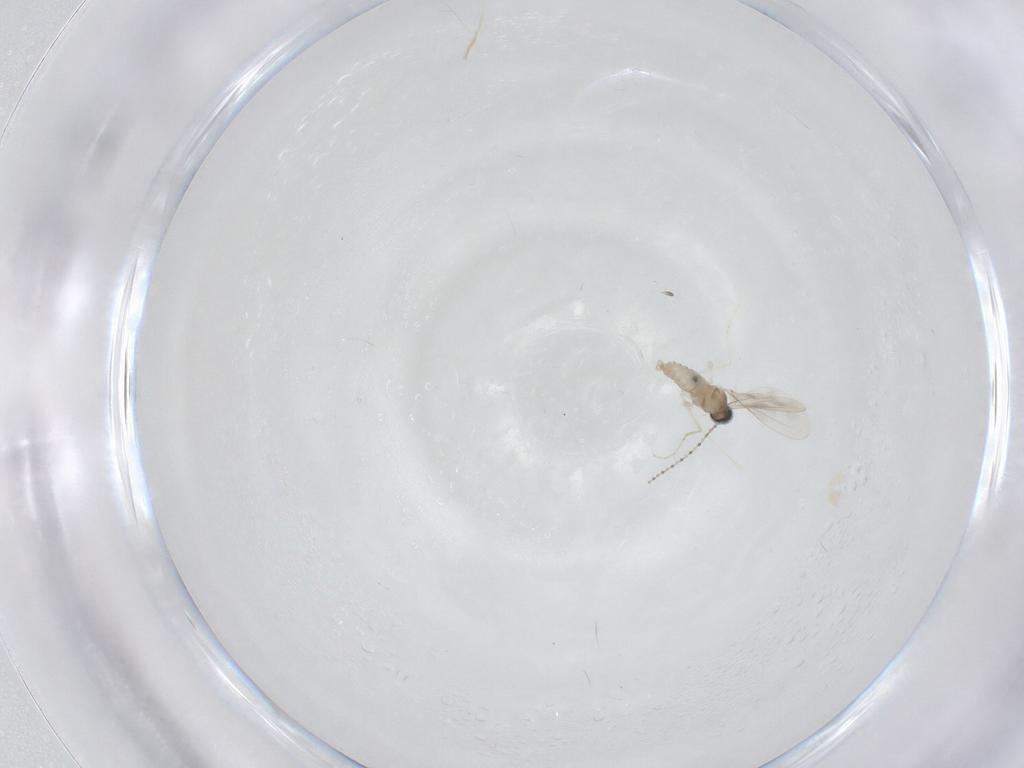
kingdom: Animalia
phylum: Arthropoda
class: Insecta
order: Diptera
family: Cecidomyiidae
